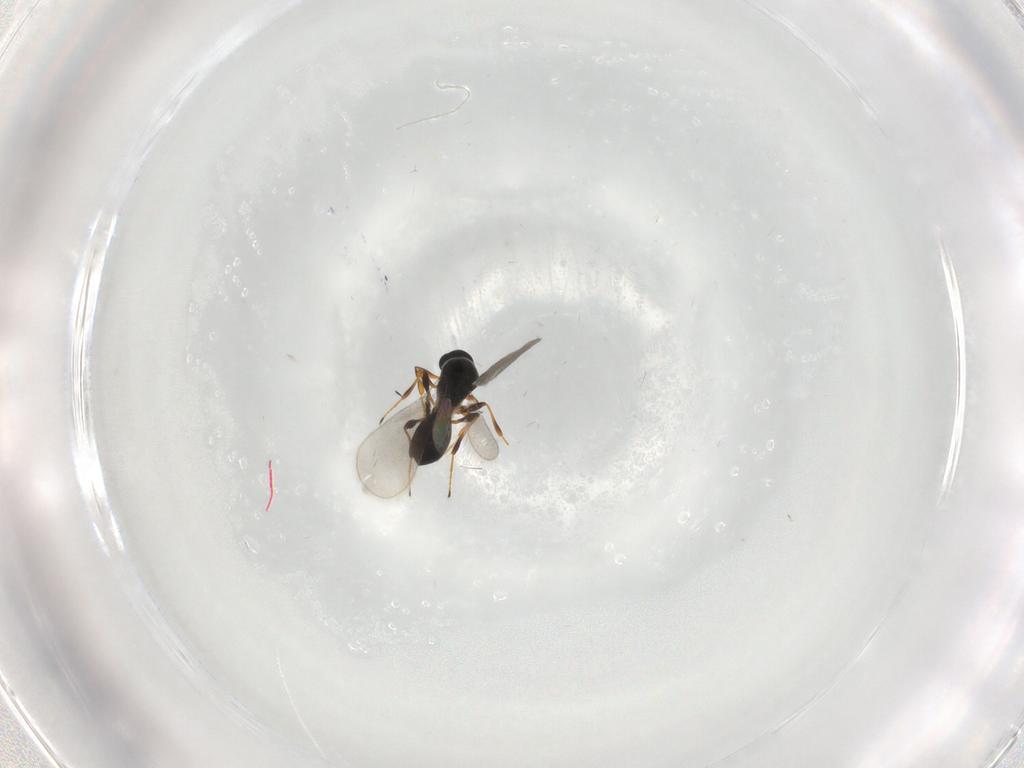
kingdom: Animalia
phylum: Arthropoda
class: Insecta
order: Hymenoptera
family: Platygastridae
